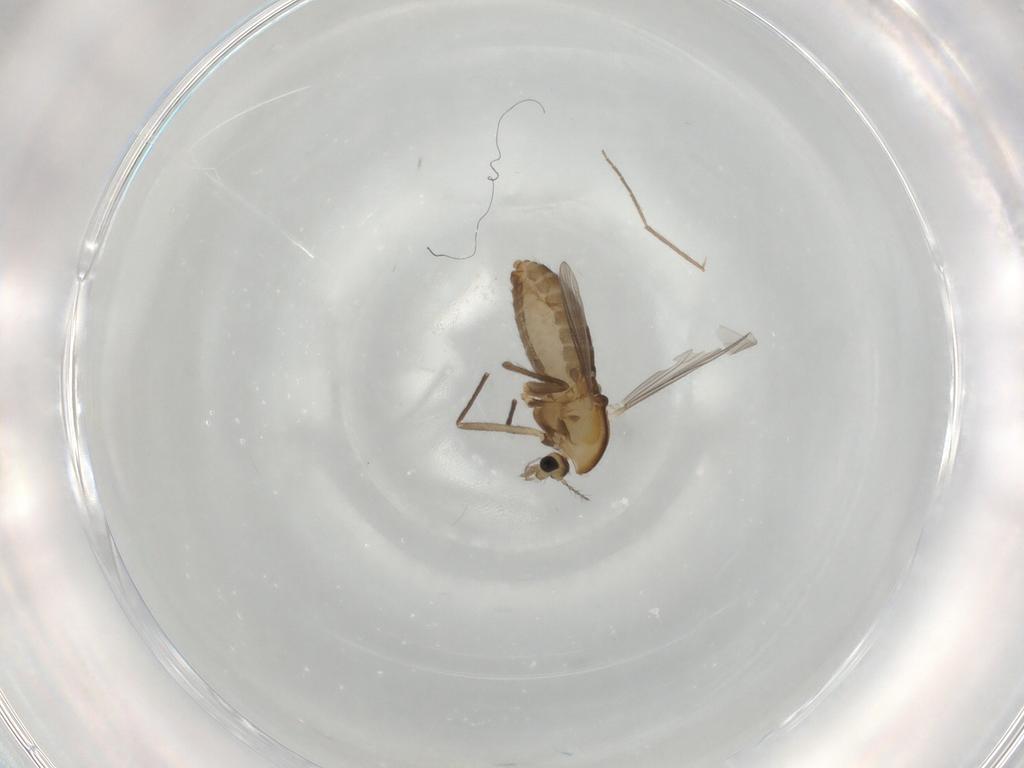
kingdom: Animalia
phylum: Arthropoda
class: Insecta
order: Diptera
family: Chironomidae
